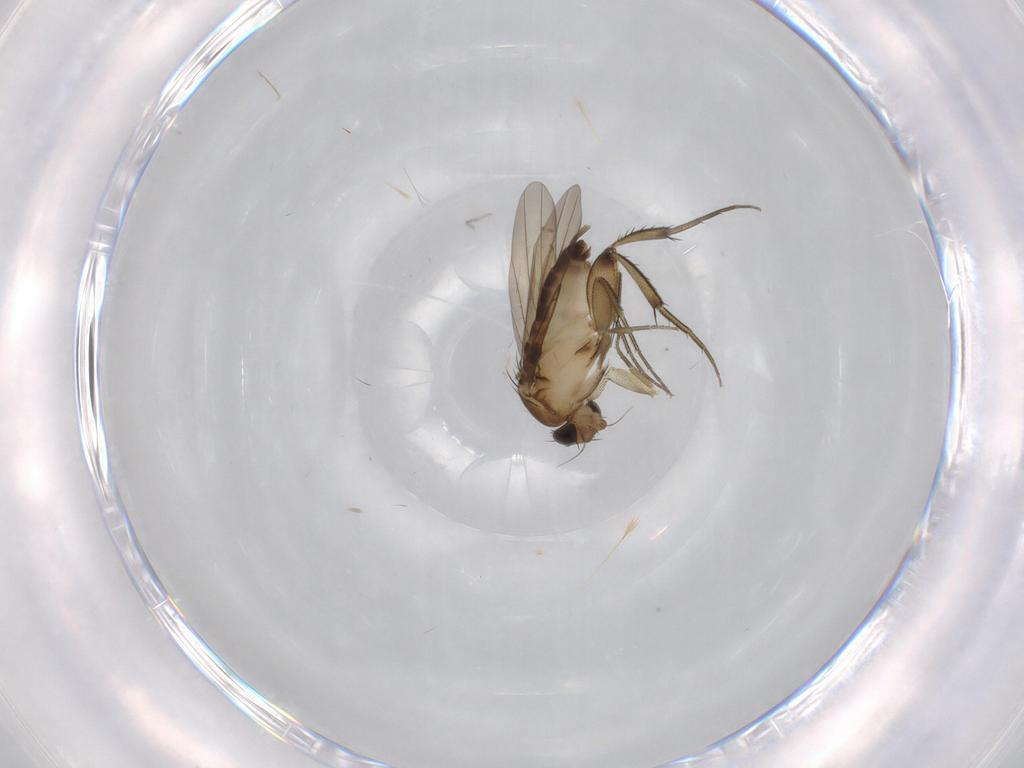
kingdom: Animalia
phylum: Arthropoda
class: Insecta
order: Diptera
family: Phoridae
